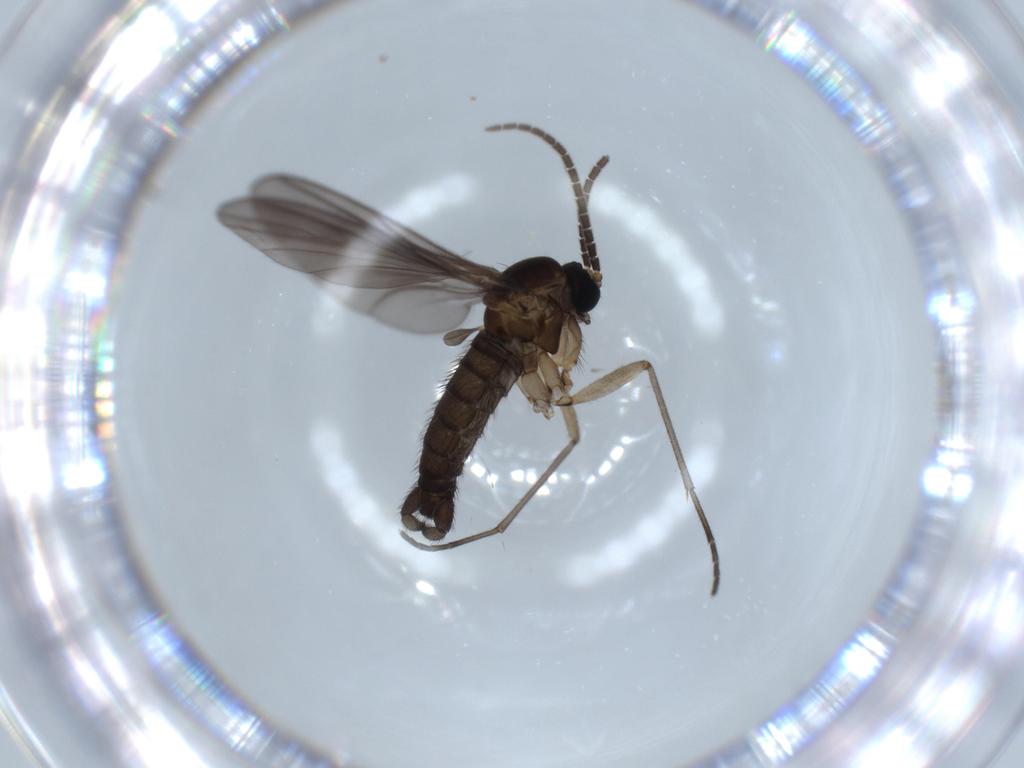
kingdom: Animalia
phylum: Arthropoda
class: Insecta
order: Diptera
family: Sciaridae
